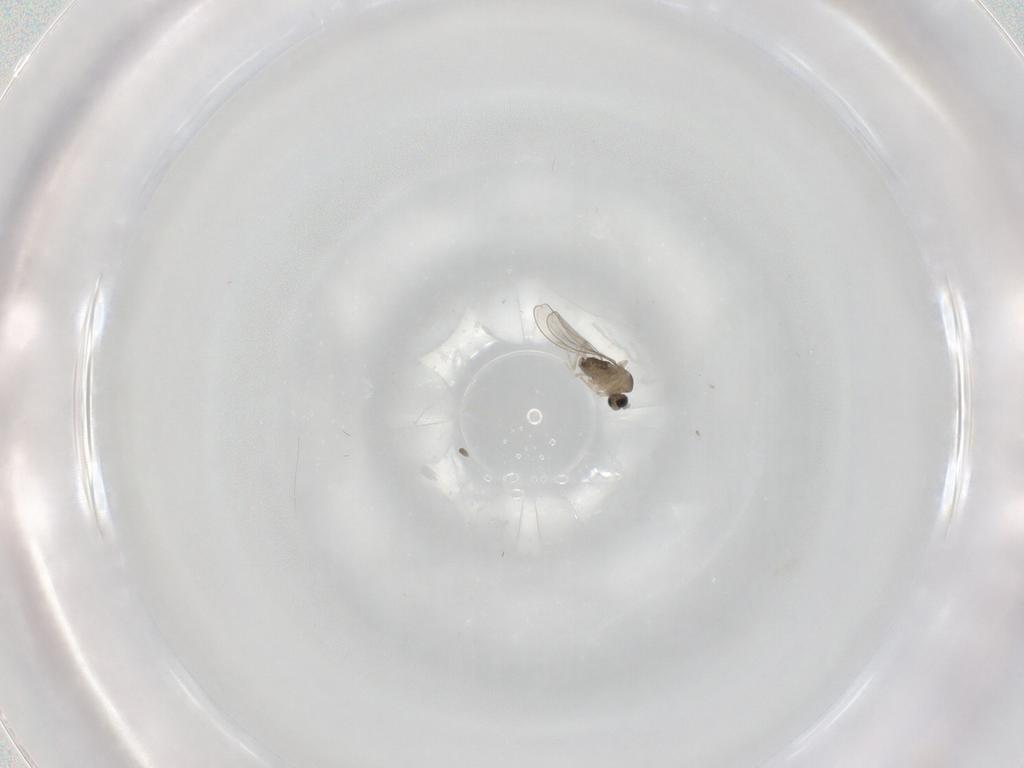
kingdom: Animalia
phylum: Arthropoda
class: Insecta
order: Diptera
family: Cecidomyiidae
